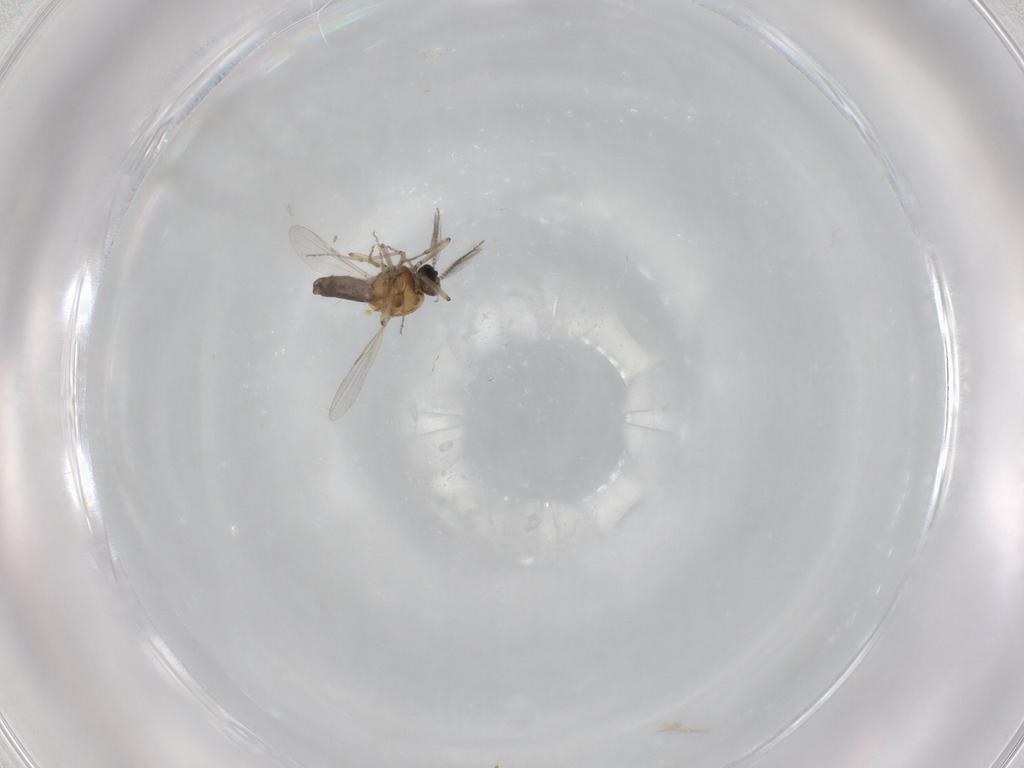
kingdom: Animalia
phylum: Arthropoda
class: Insecta
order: Diptera
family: Ceratopogonidae
